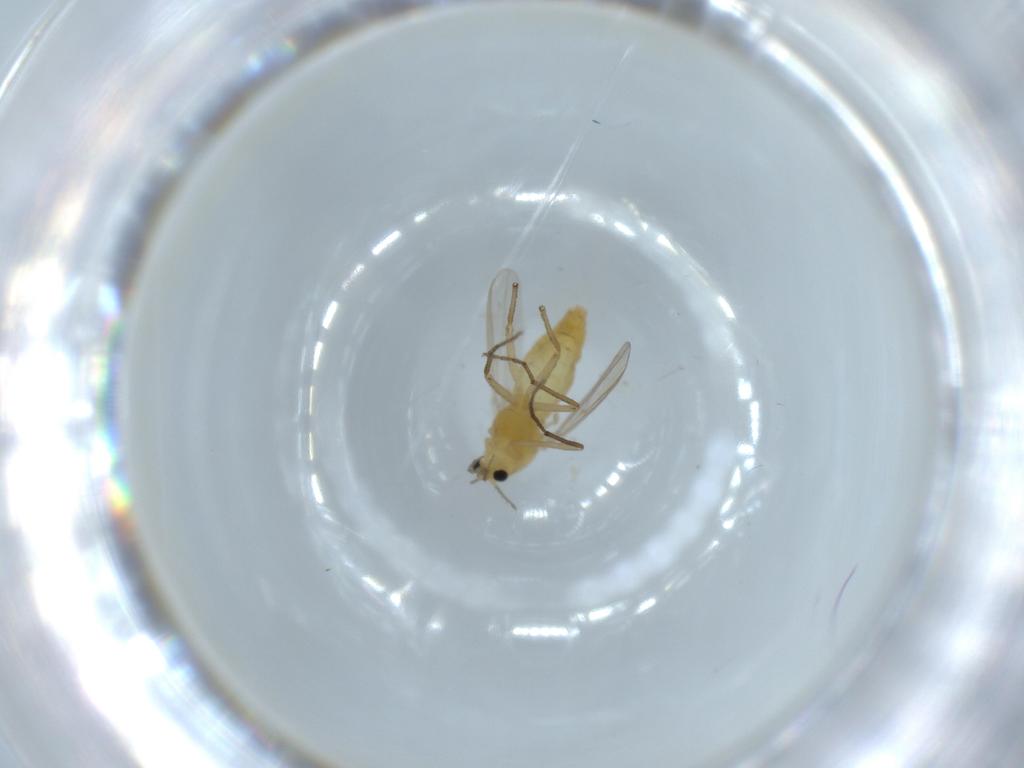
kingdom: Animalia
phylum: Arthropoda
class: Insecta
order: Diptera
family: Chironomidae
